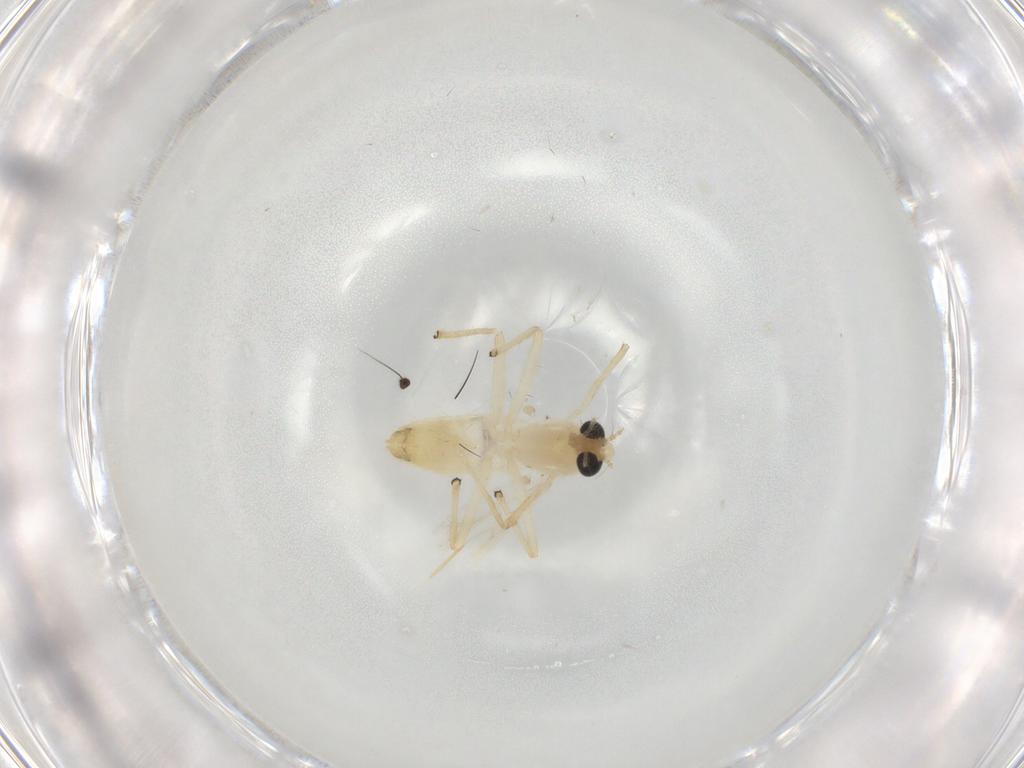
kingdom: Animalia
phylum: Arthropoda
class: Insecta
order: Diptera
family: Chironomidae
